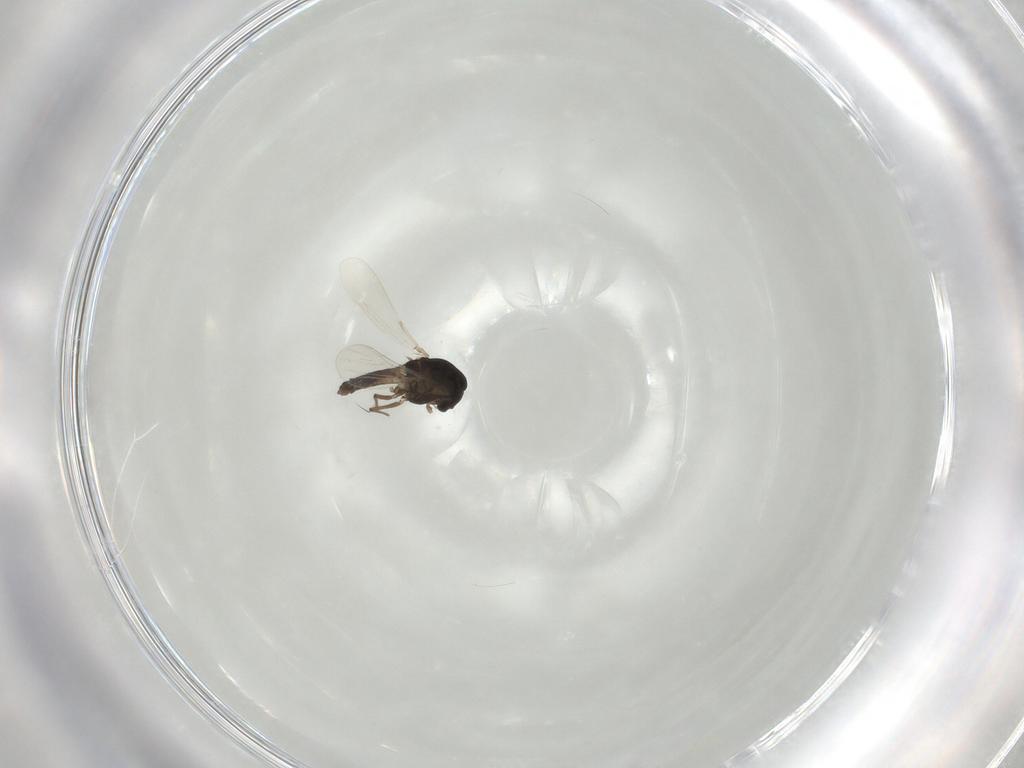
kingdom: Animalia
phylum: Arthropoda
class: Insecta
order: Diptera
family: Chironomidae
